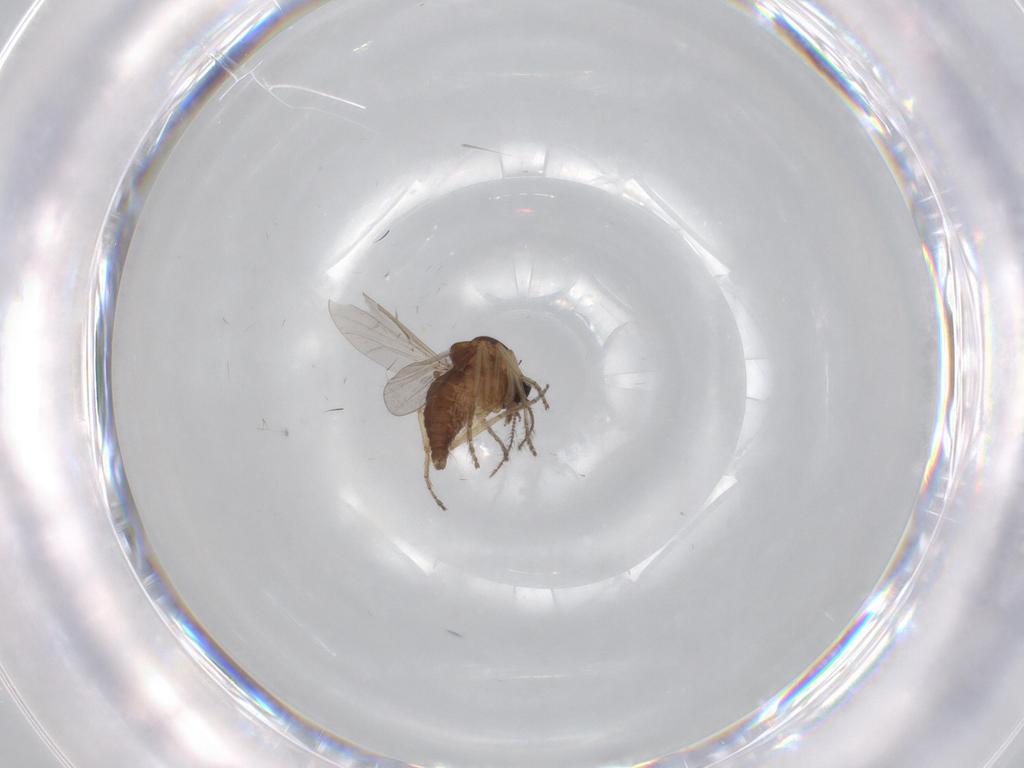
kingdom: Animalia
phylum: Arthropoda
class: Insecta
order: Diptera
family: Ceratopogonidae
